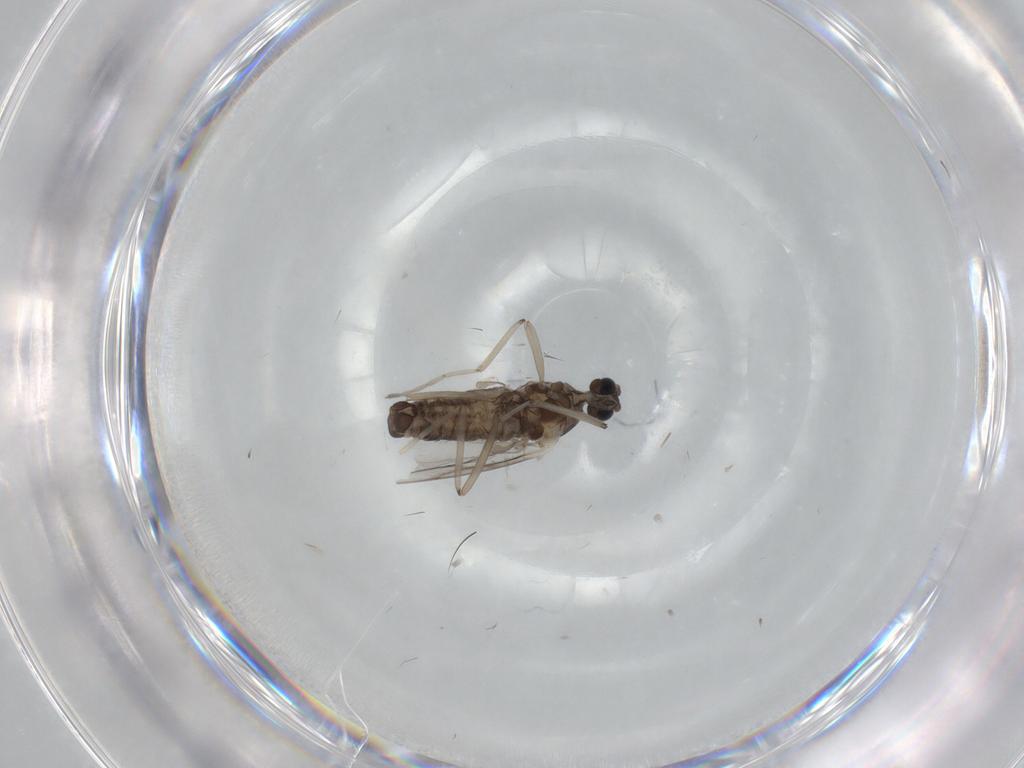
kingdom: Animalia
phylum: Arthropoda
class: Insecta
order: Diptera
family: Cecidomyiidae
